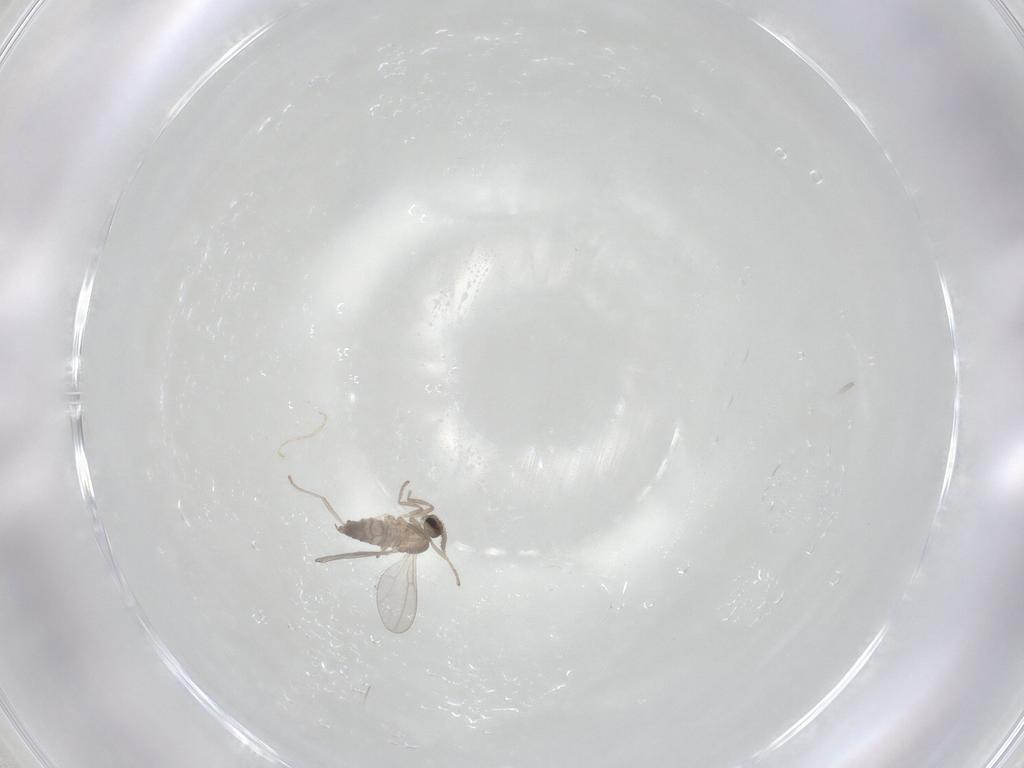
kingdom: Animalia
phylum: Arthropoda
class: Insecta
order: Diptera
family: Cecidomyiidae
